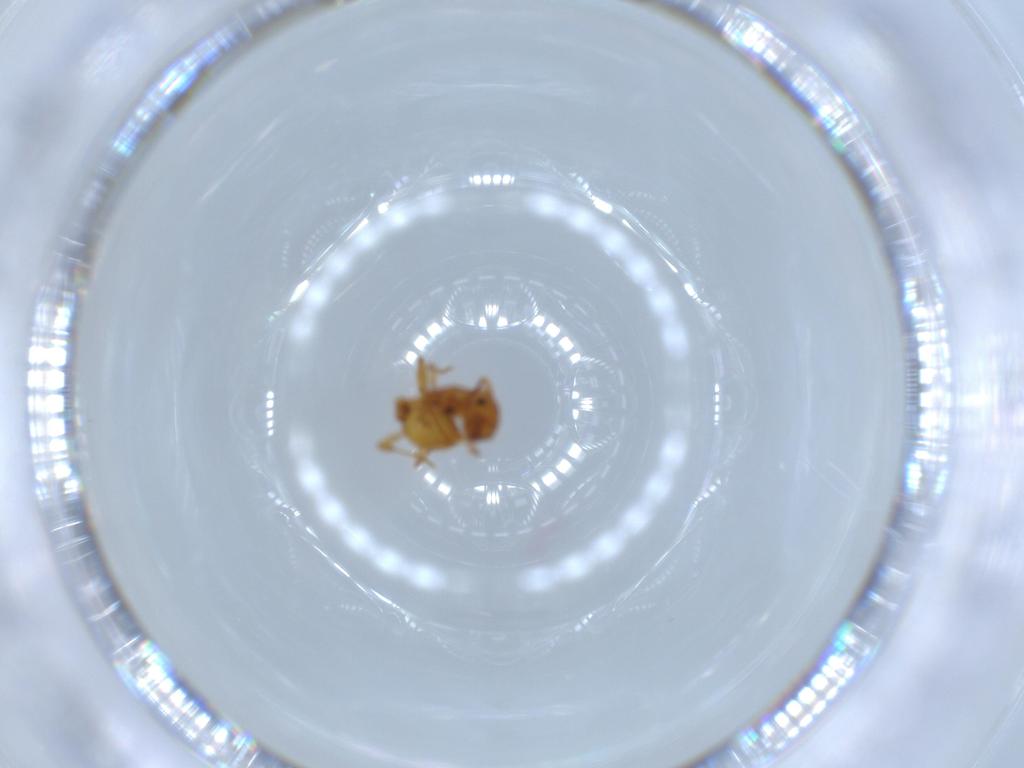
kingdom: Animalia
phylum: Arthropoda
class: Insecta
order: Hymenoptera
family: Formicidae
